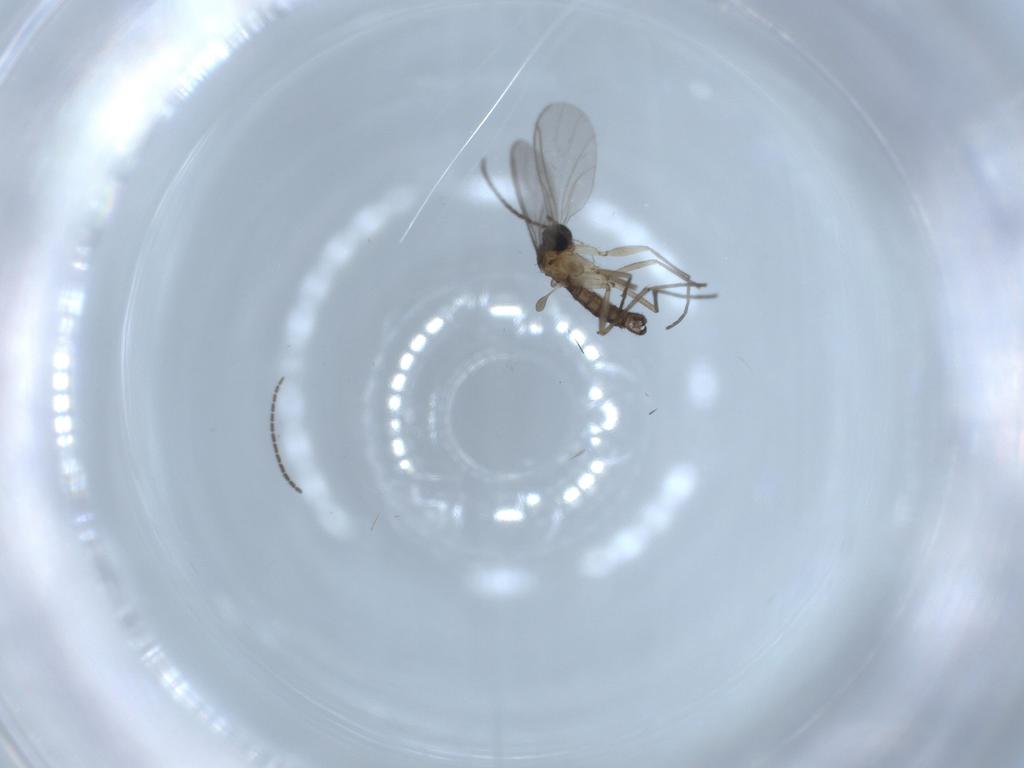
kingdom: Animalia
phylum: Arthropoda
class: Insecta
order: Diptera
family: Sciaridae
